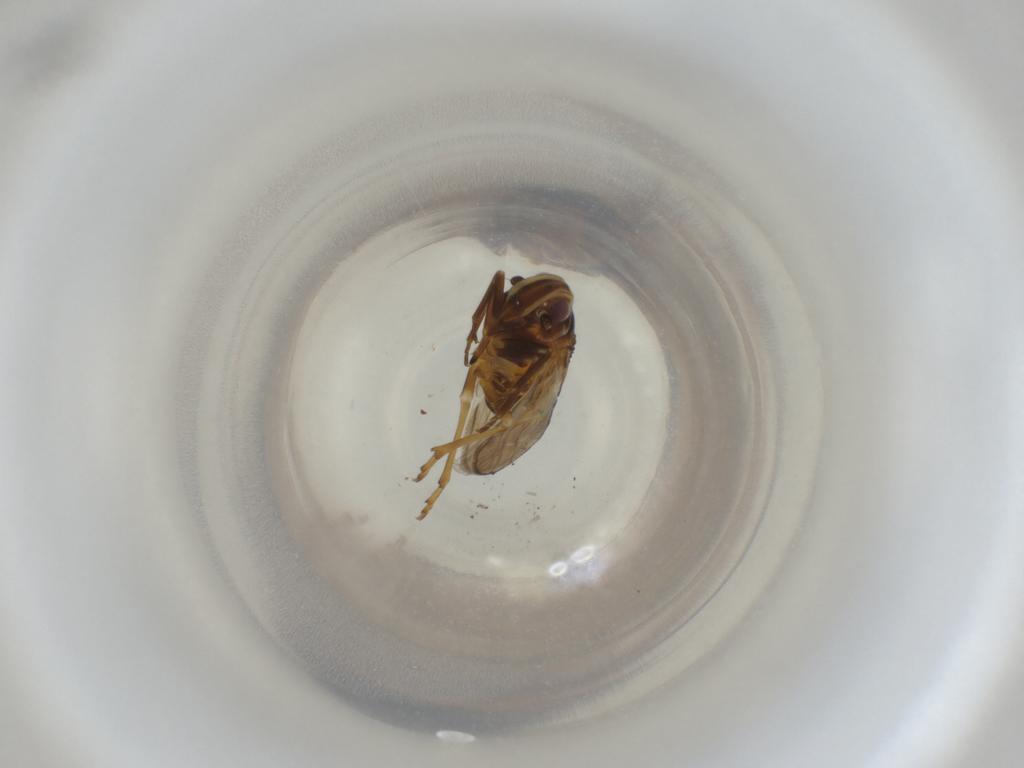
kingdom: Animalia
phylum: Arthropoda
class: Insecta
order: Hemiptera
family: Meenoplidae
